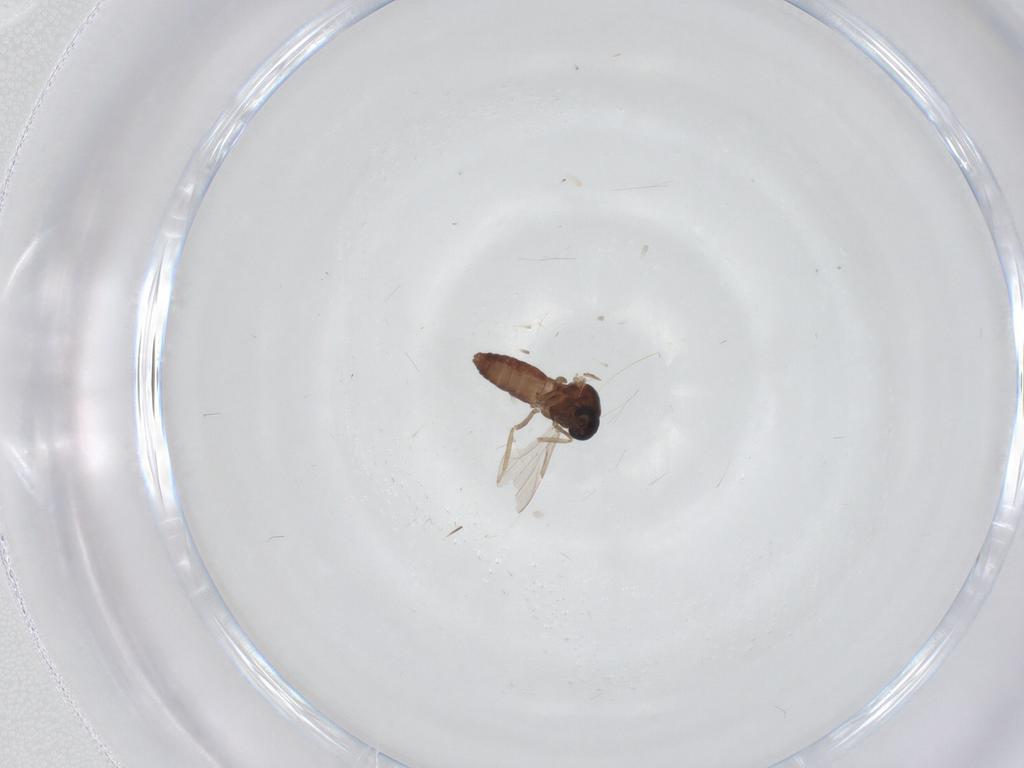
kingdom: Animalia
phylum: Arthropoda
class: Insecta
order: Diptera
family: Ceratopogonidae
